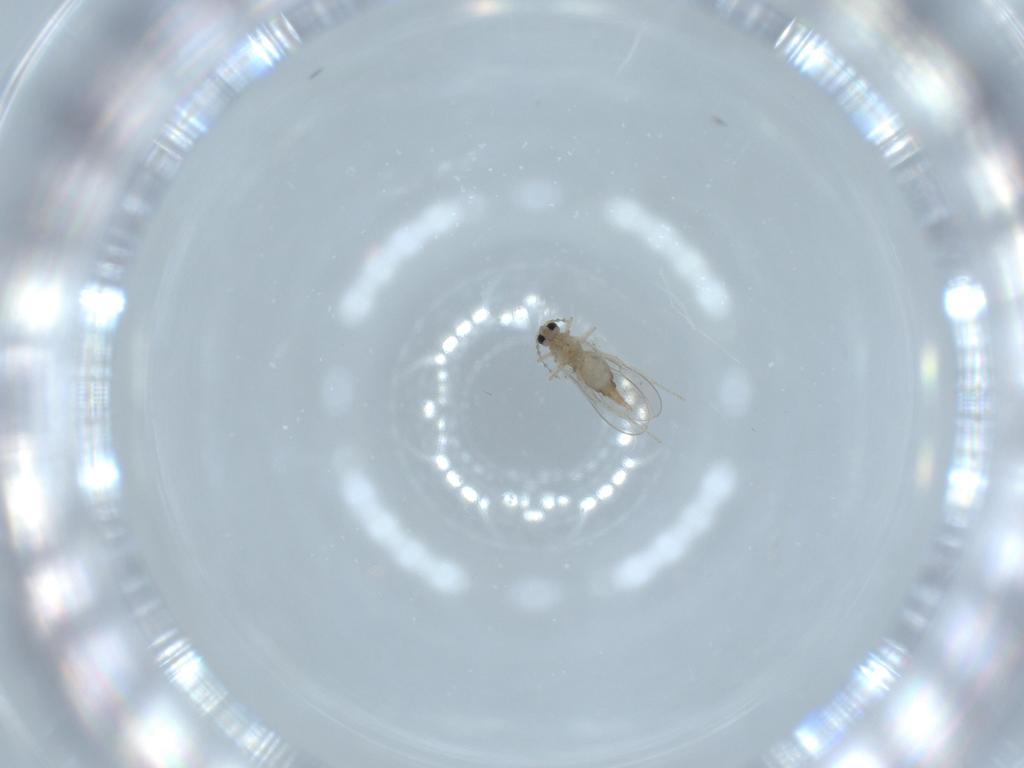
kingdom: Animalia
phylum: Arthropoda
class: Insecta
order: Diptera
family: Cecidomyiidae
